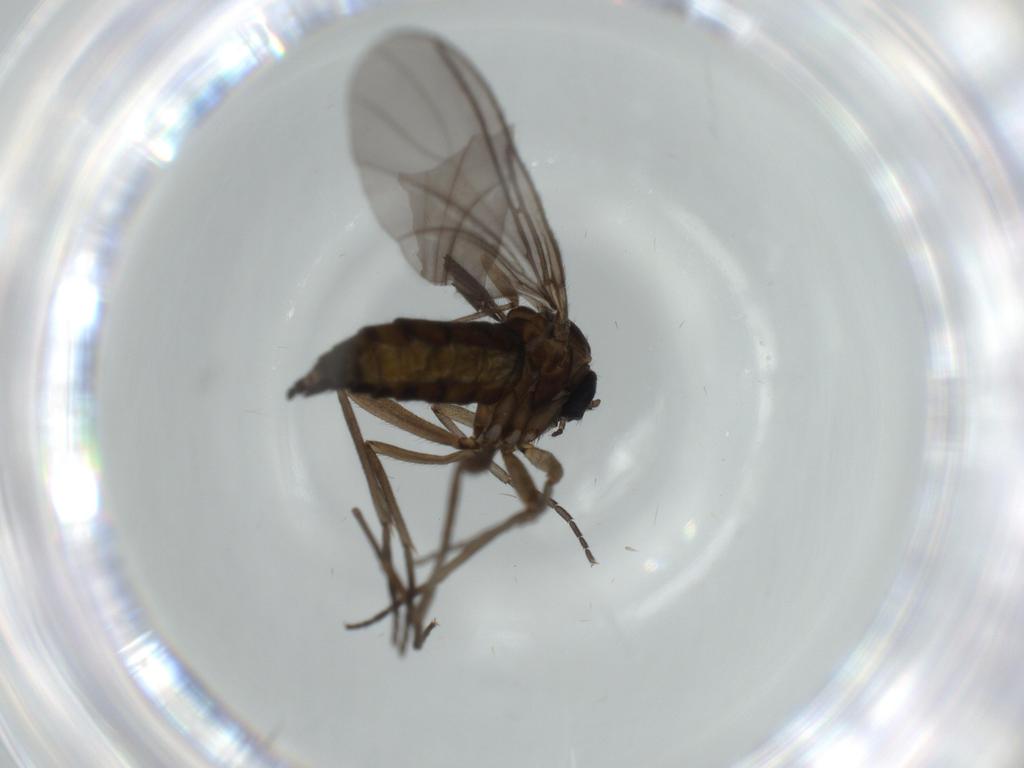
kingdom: Animalia
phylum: Arthropoda
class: Insecta
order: Diptera
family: Sciaridae
